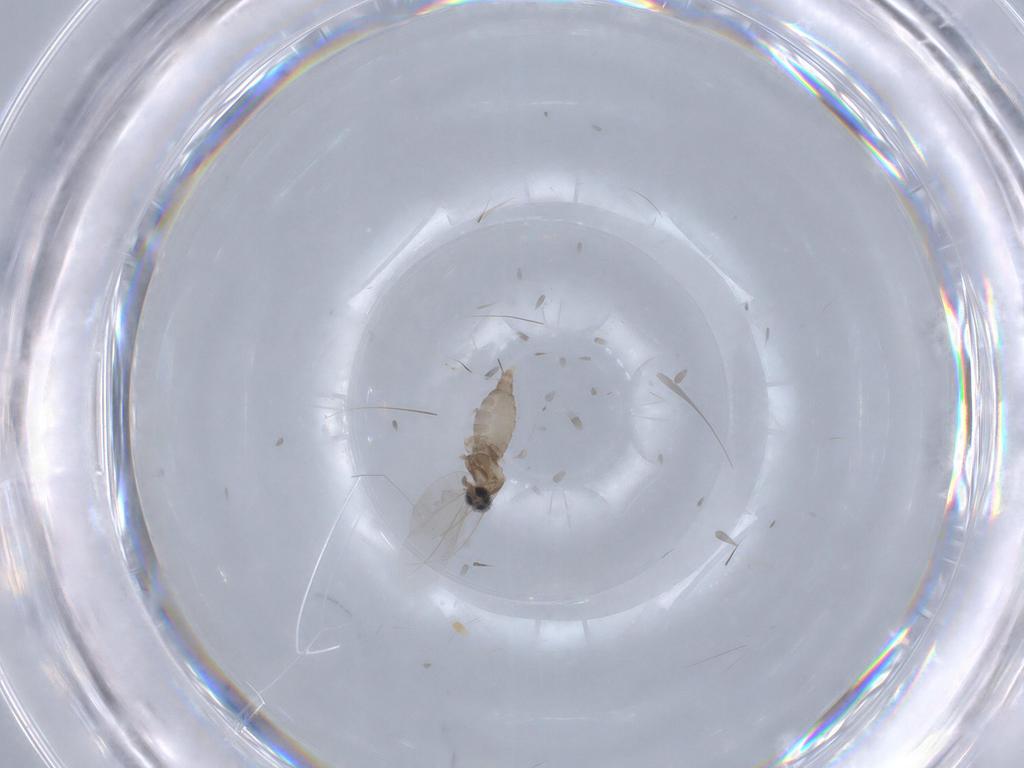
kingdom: Animalia
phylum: Arthropoda
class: Insecta
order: Diptera
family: Cecidomyiidae
